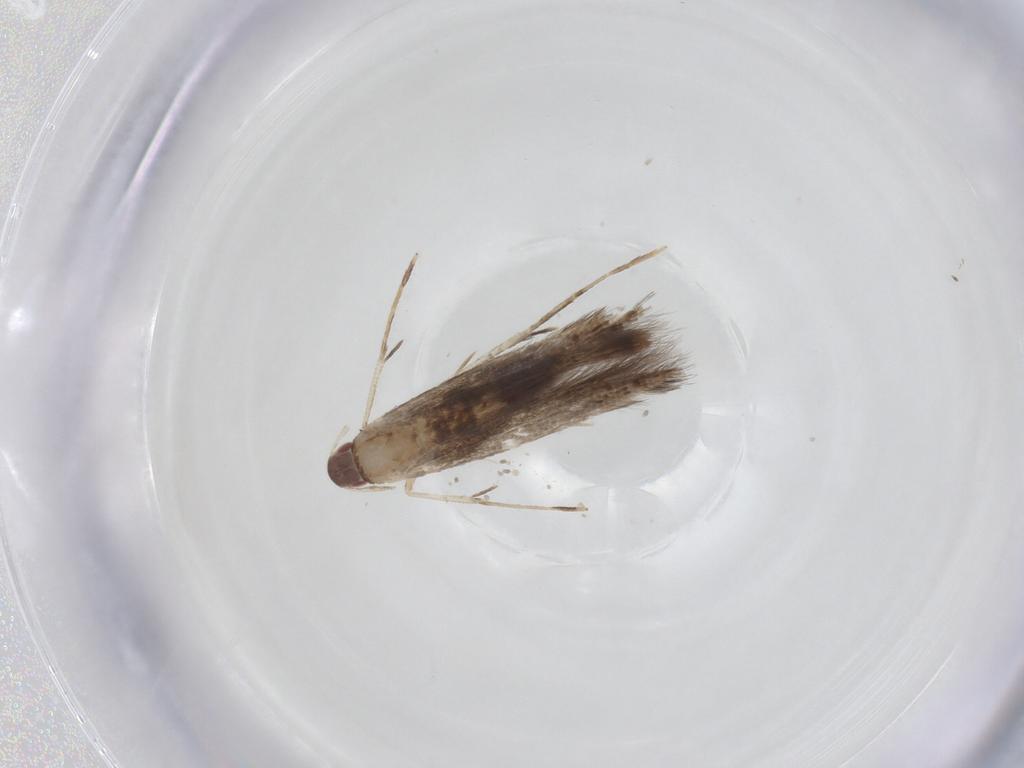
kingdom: Animalia
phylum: Arthropoda
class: Insecta
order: Lepidoptera
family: Cosmopterigidae
